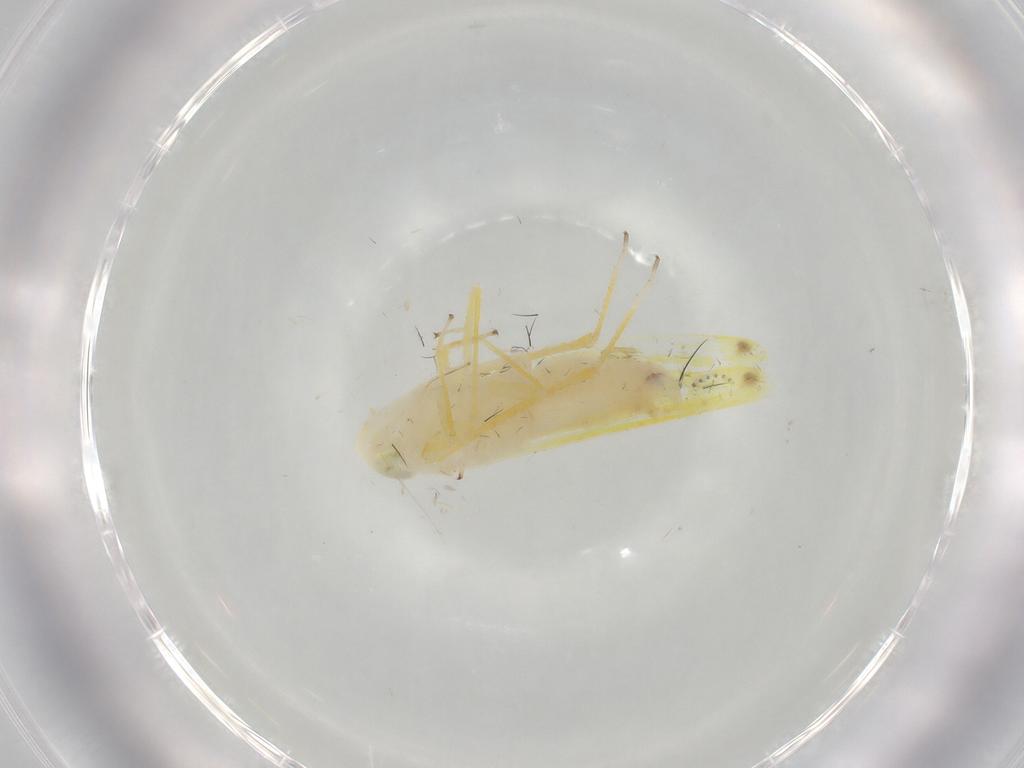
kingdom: Animalia
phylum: Arthropoda
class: Insecta
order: Hemiptera
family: Cicadellidae
